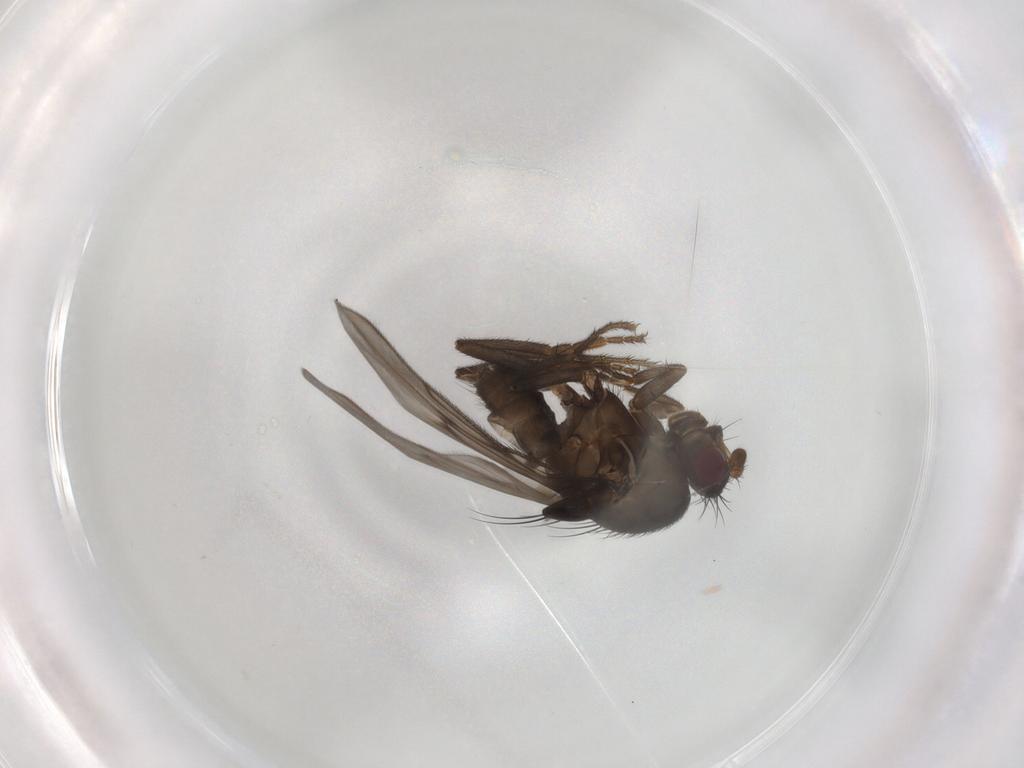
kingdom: Animalia
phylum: Arthropoda
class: Insecta
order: Diptera
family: Sphaeroceridae
